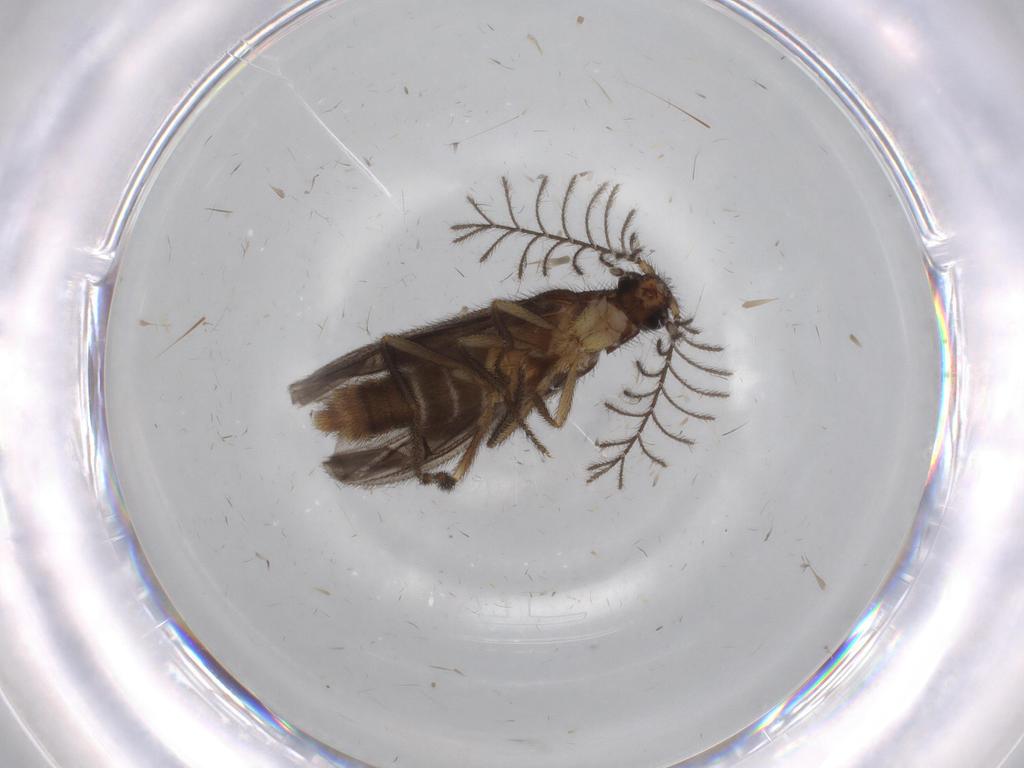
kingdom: Animalia
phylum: Arthropoda
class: Insecta
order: Coleoptera
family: Phengodidae
